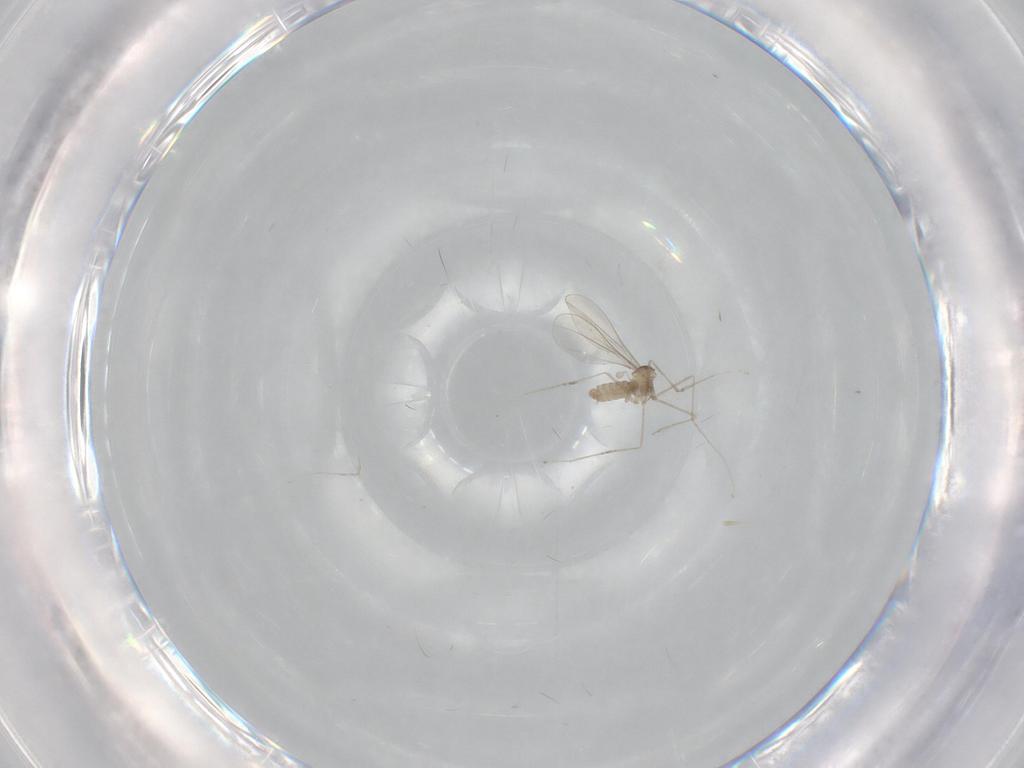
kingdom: Animalia
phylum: Arthropoda
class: Insecta
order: Diptera
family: Cecidomyiidae
